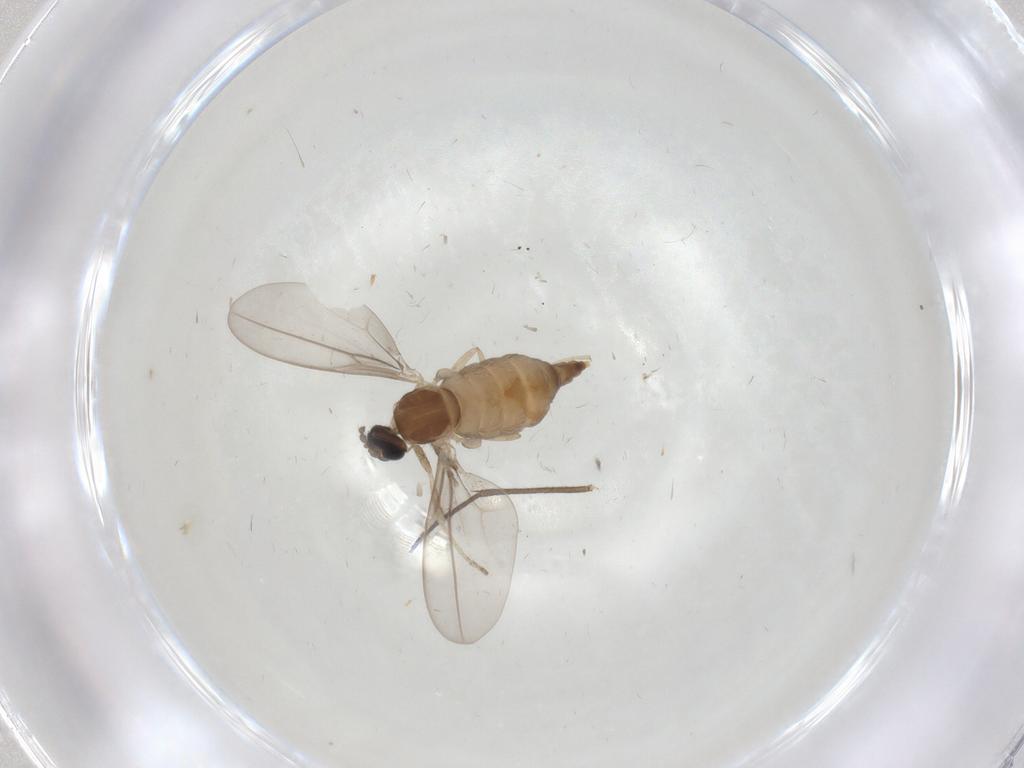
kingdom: Animalia
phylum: Arthropoda
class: Insecta
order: Diptera
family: Cecidomyiidae
